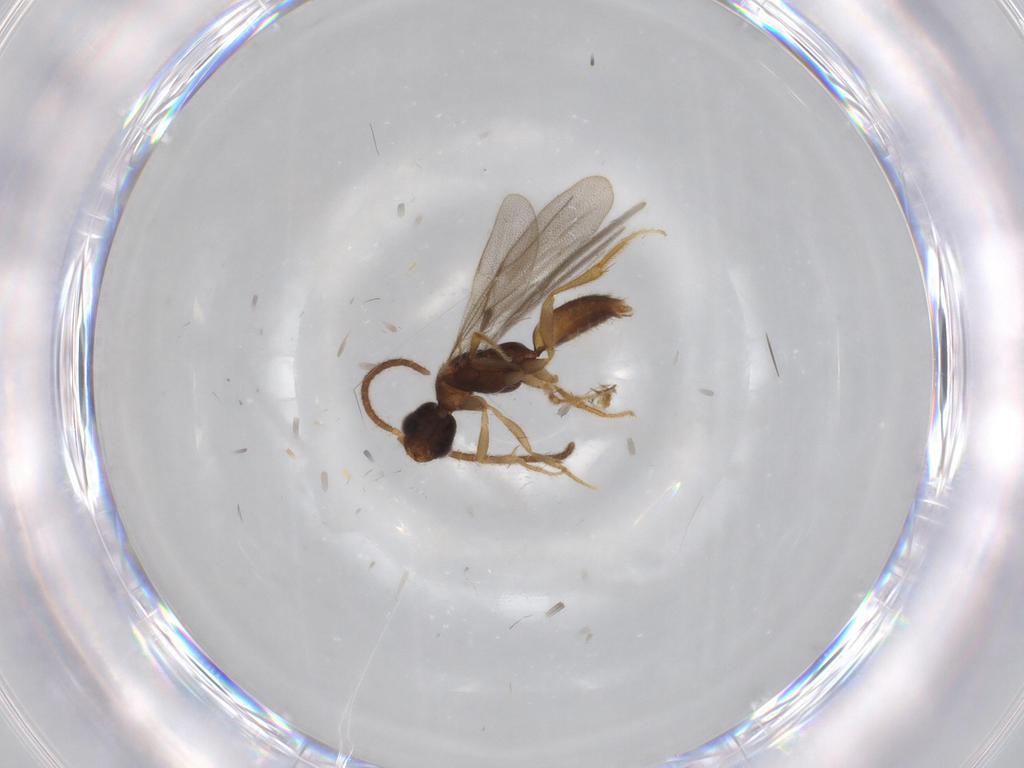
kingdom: Animalia
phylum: Arthropoda
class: Insecta
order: Hymenoptera
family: Bethylidae
